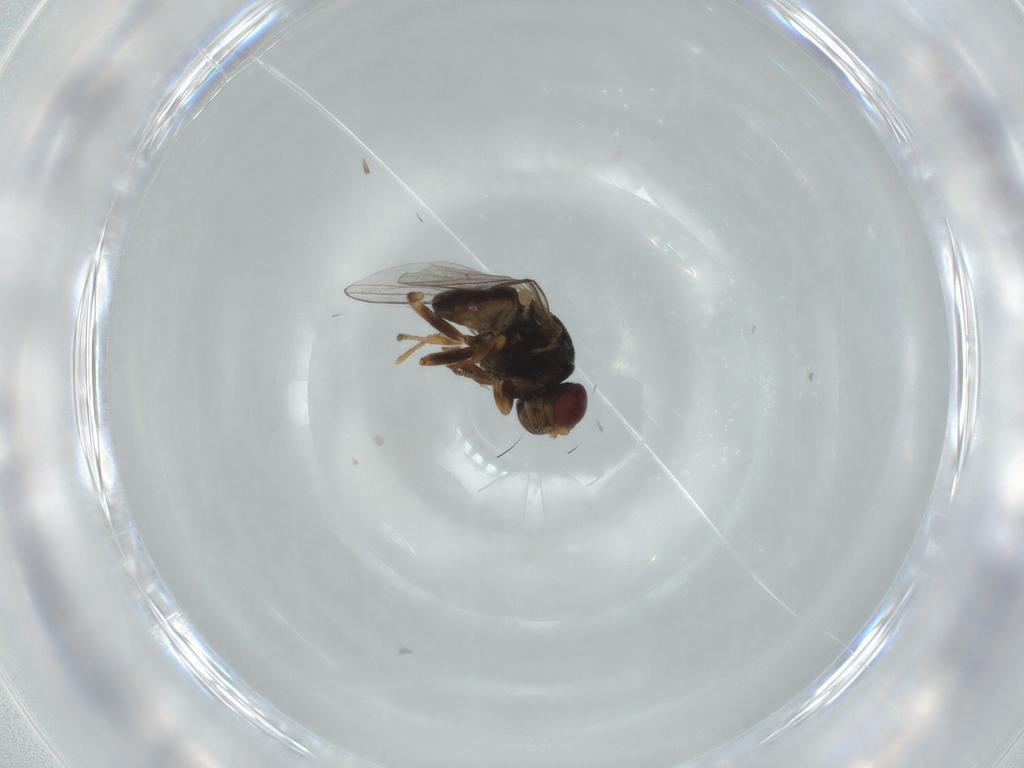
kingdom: Animalia
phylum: Arthropoda
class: Insecta
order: Diptera
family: Chloropidae
